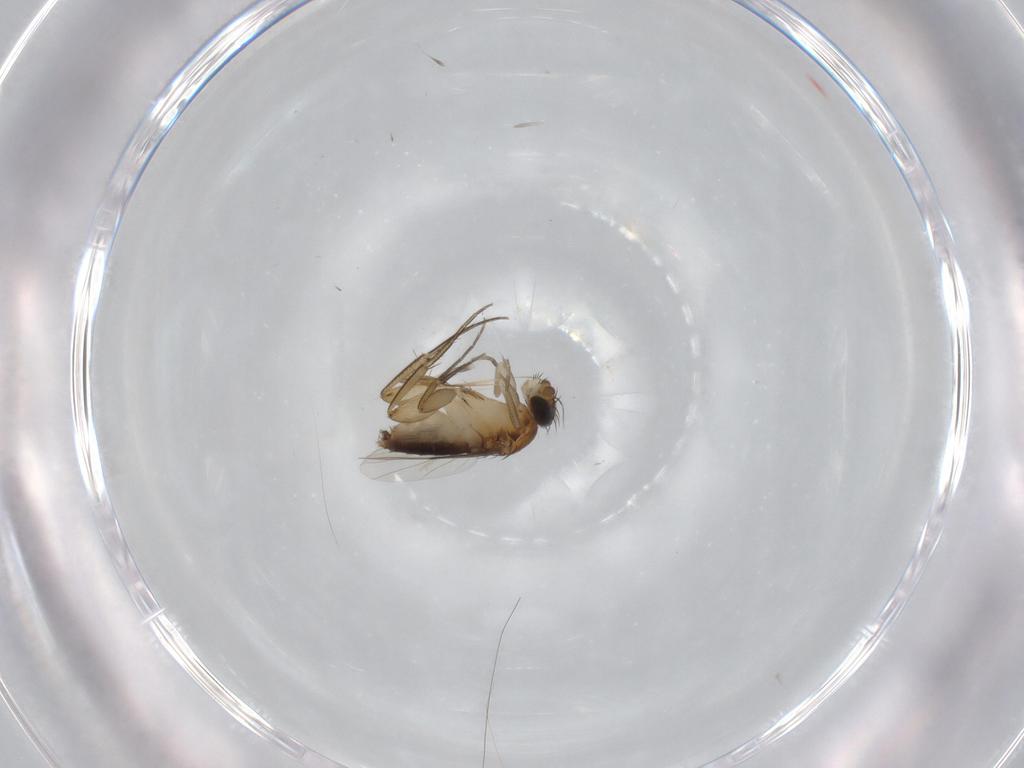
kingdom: Animalia
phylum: Arthropoda
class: Insecta
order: Diptera
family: Phoridae
